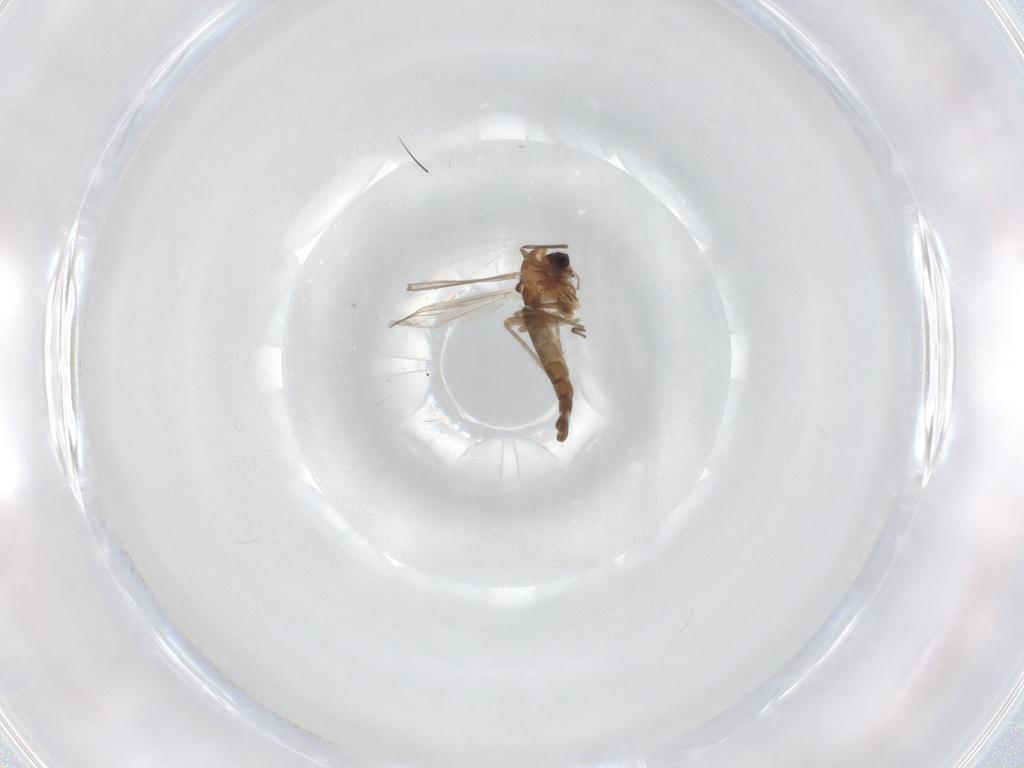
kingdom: Animalia
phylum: Arthropoda
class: Insecta
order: Diptera
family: Chironomidae
